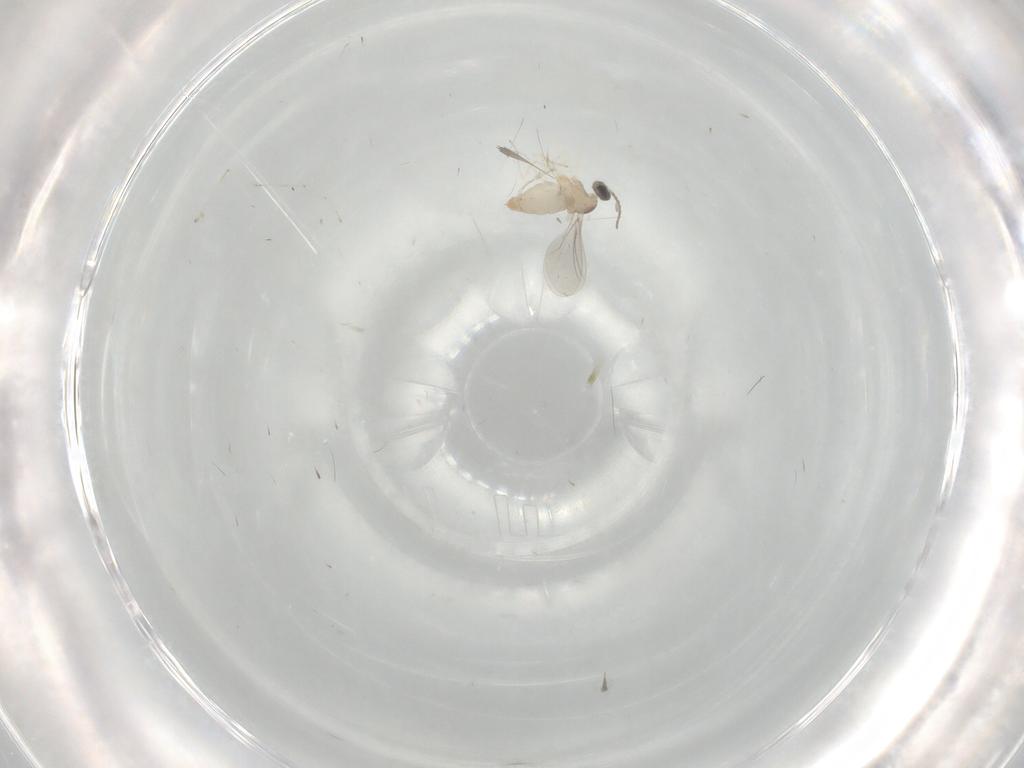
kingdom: Animalia
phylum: Arthropoda
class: Insecta
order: Diptera
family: Cecidomyiidae
